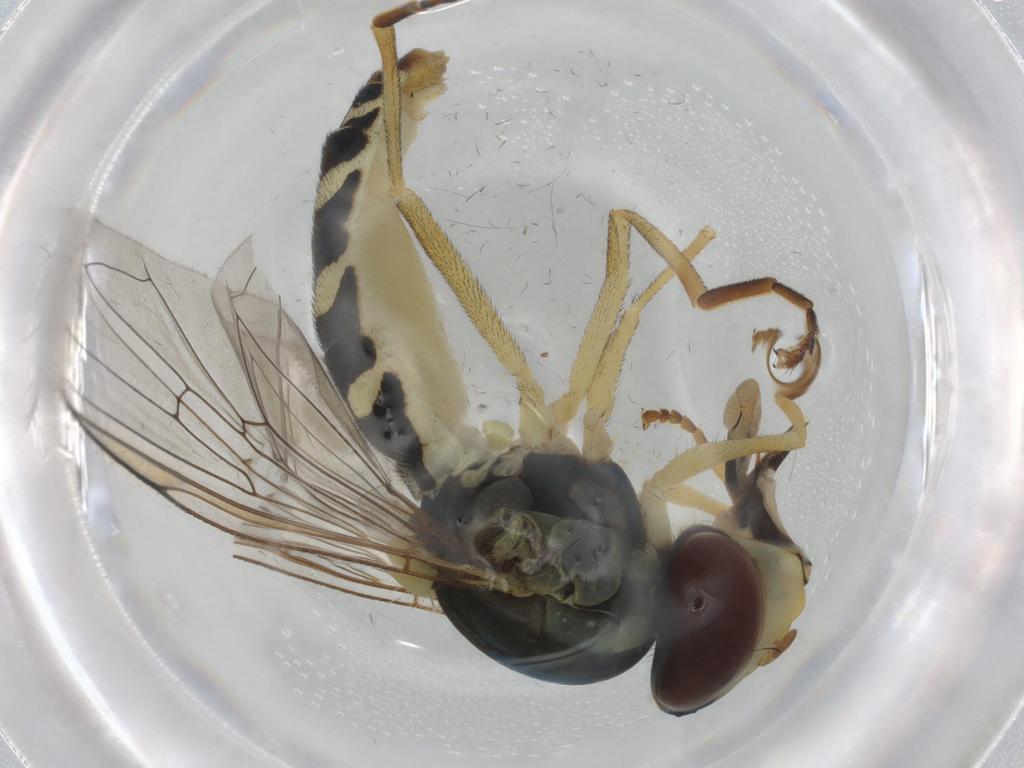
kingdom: Animalia
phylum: Arthropoda
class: Insecta
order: Diptera
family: Syrphidae
